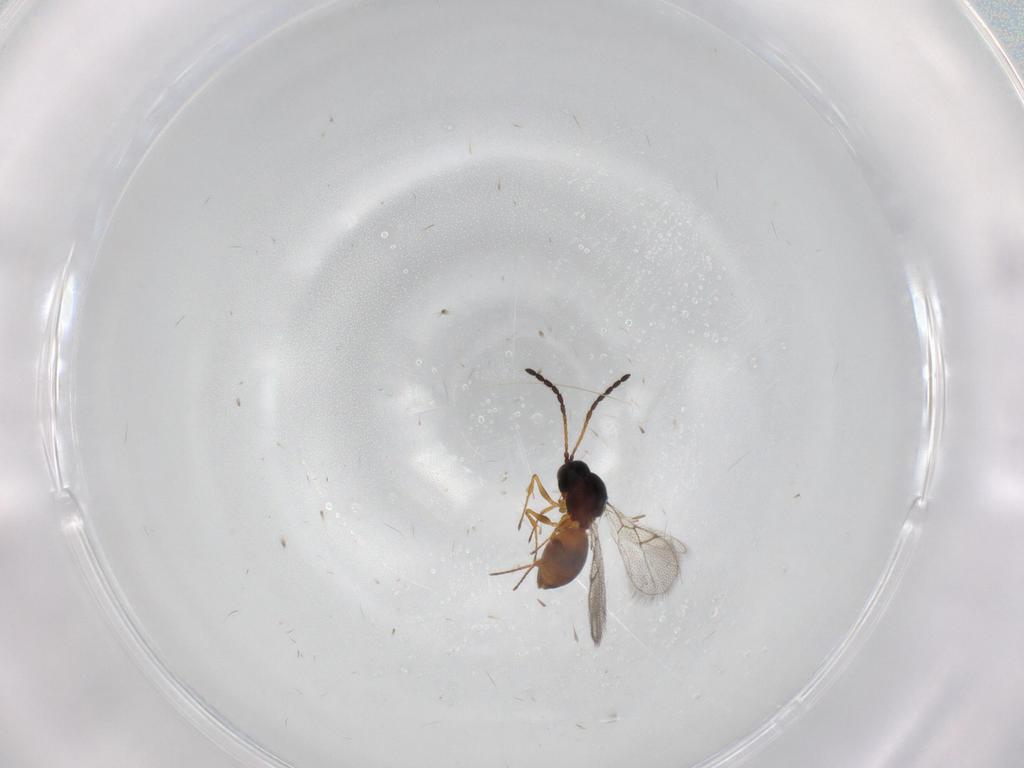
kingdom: Animalia
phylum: Arthropoda
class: Insecta
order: Hymenoptera
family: Figitidae
